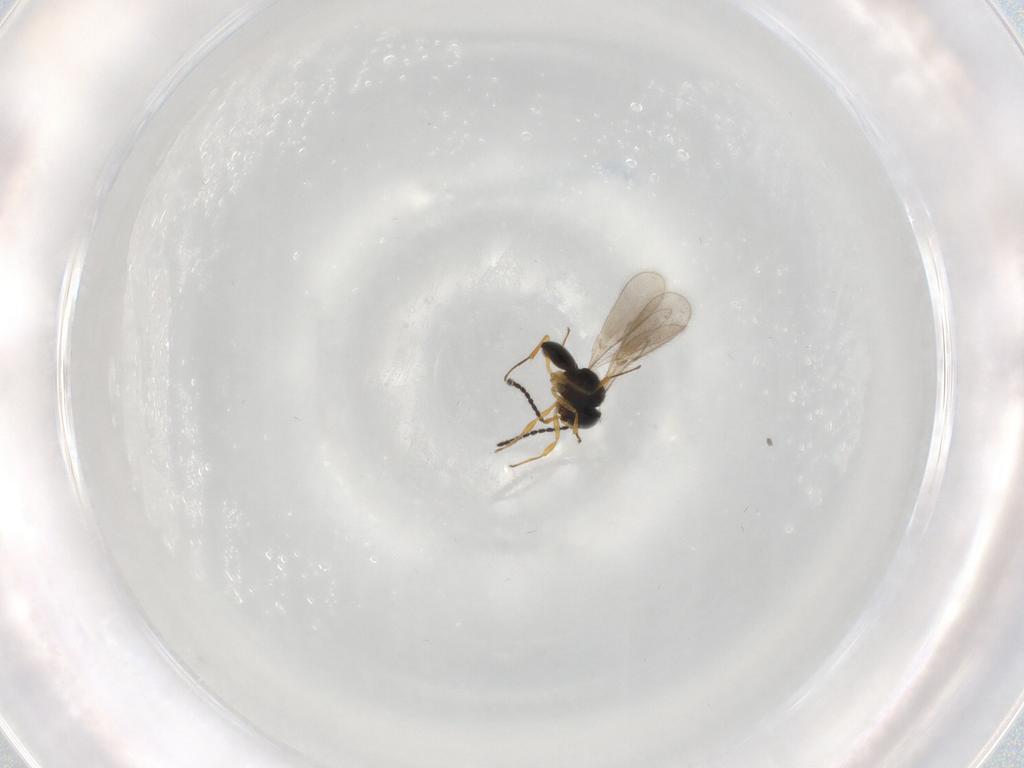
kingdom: Animalia
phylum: Arthropoda
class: Insecta
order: Hymenoptera
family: Scelionidae
